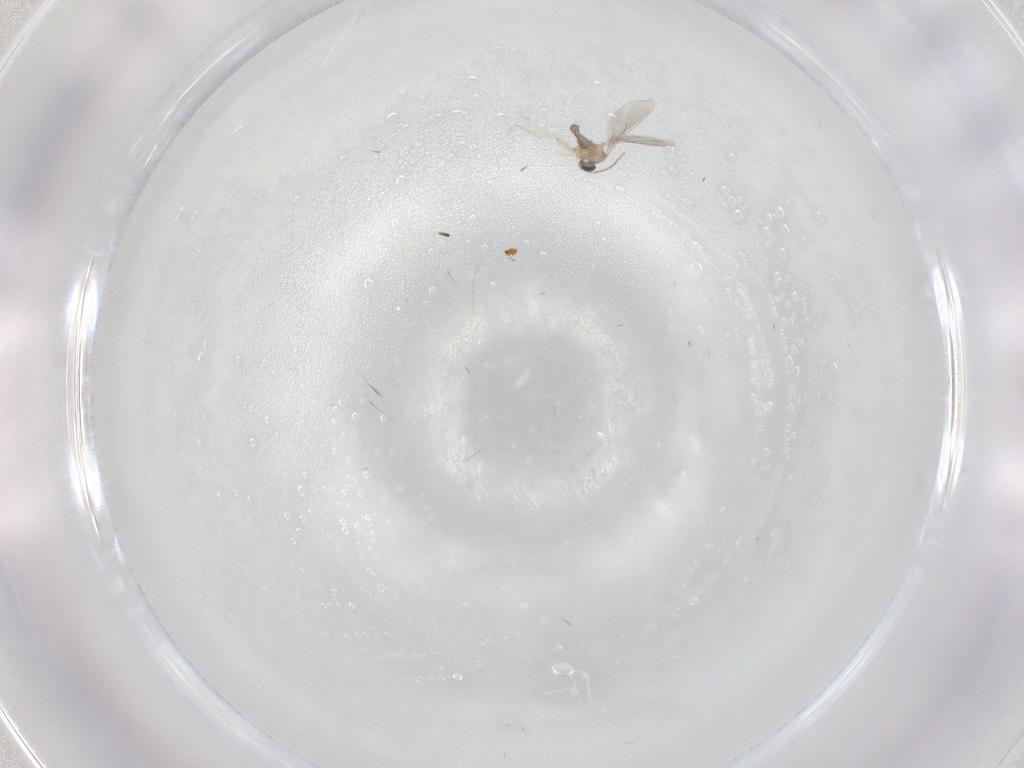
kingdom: Animalia
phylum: Arthropoda
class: Insecta
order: Diptera
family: Cecidomyiidae
